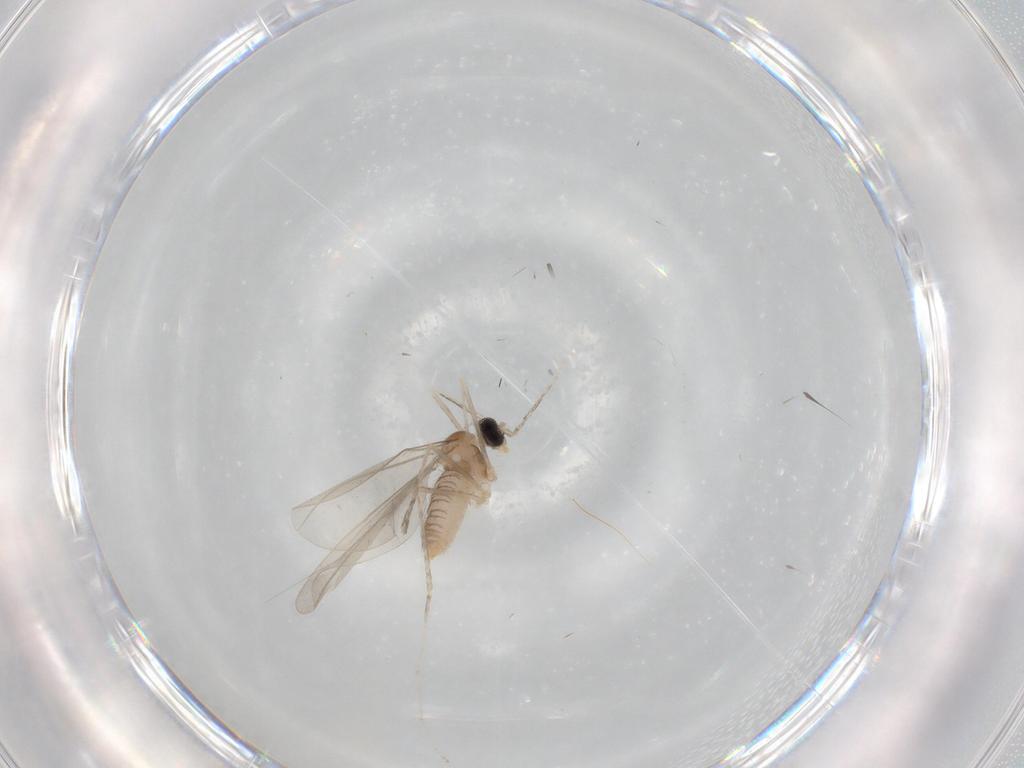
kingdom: Animalia
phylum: Arthropoda
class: Insecta
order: Diptera
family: Cecidomyiidae
